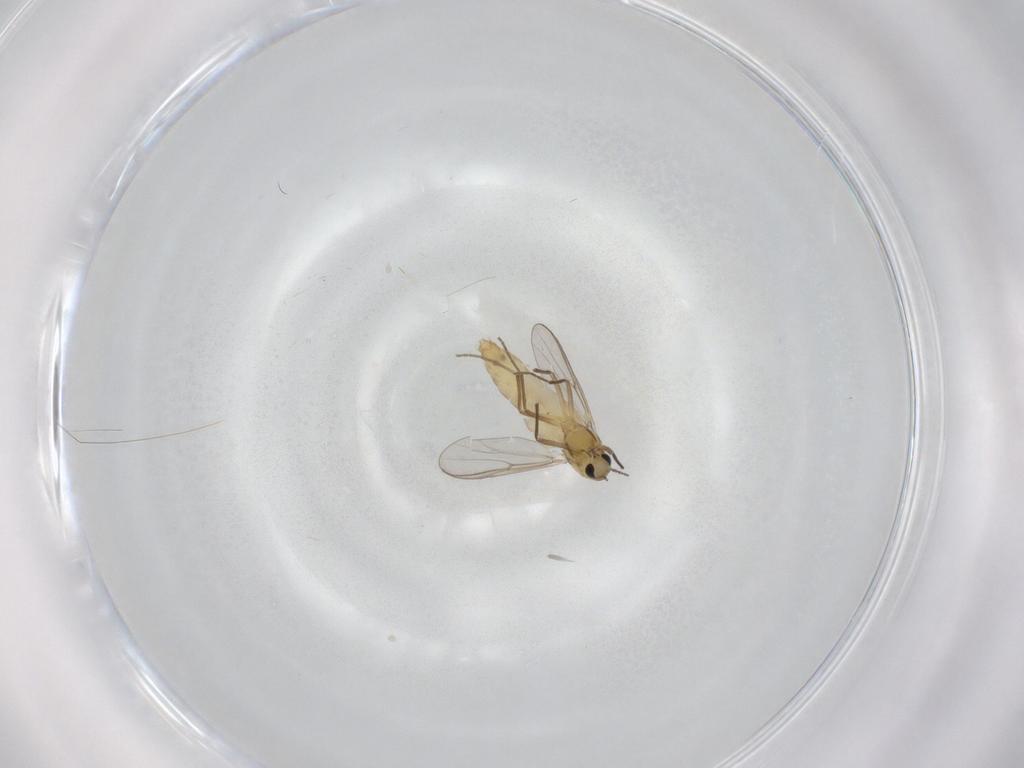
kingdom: Animalia
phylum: Arthropoda
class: Insecta
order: Diptera
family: Chironomidae
